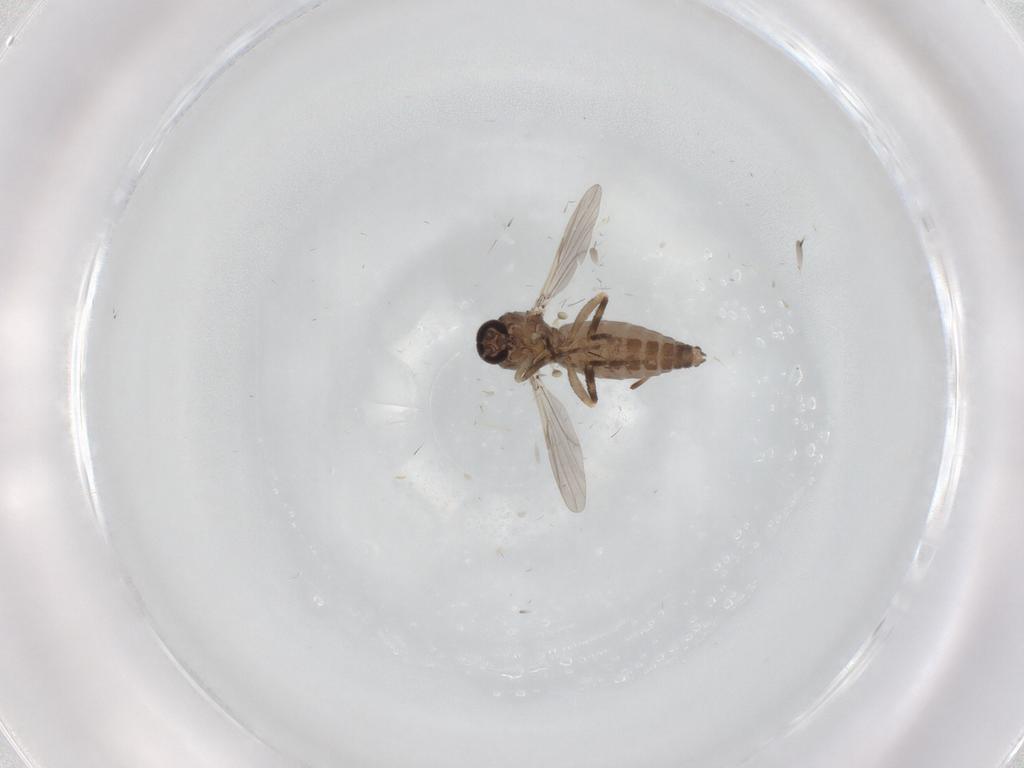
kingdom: Animalia
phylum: Arthropoda
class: Insecta
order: Diptera
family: Ceratopogonidae
